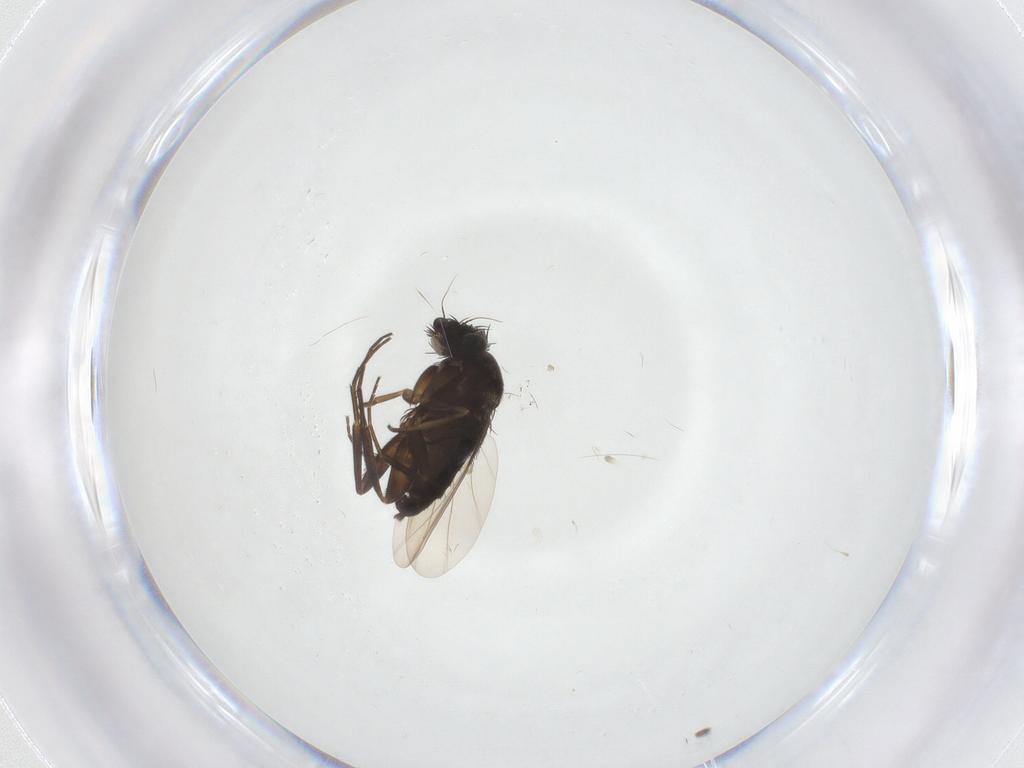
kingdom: Animalia
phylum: Arthropoda
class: Insecta
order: Diptera
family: Phoridae
